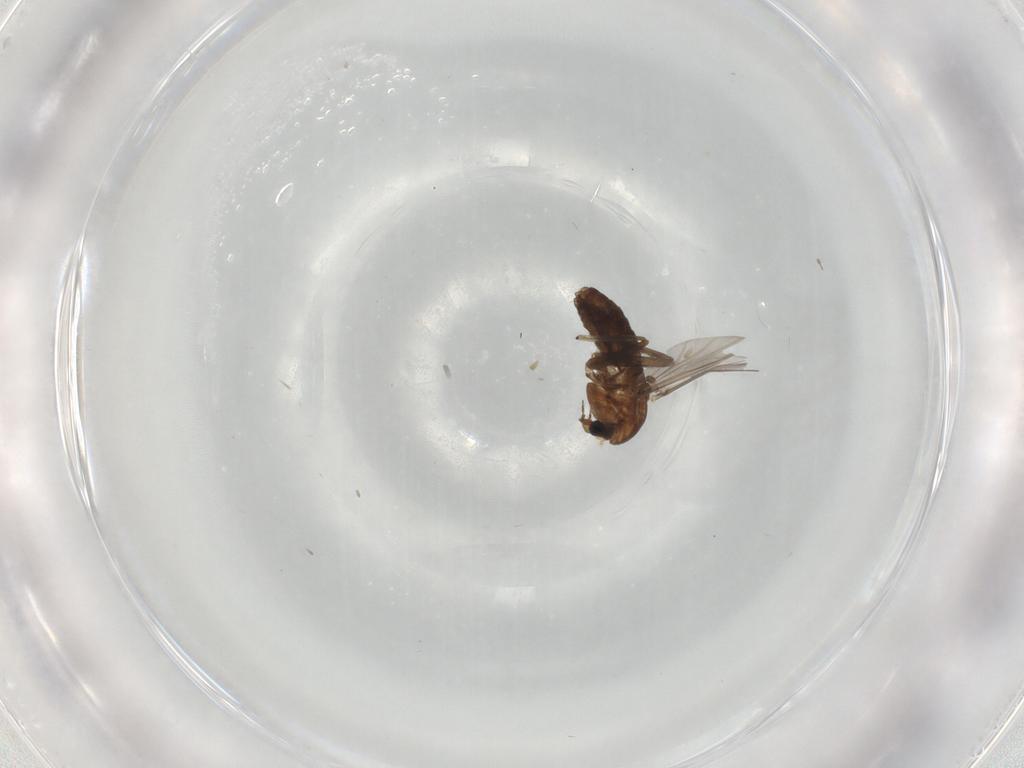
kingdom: Animalia
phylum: Arthropoda
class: Insecta
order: Diptera
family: Chironomidae
